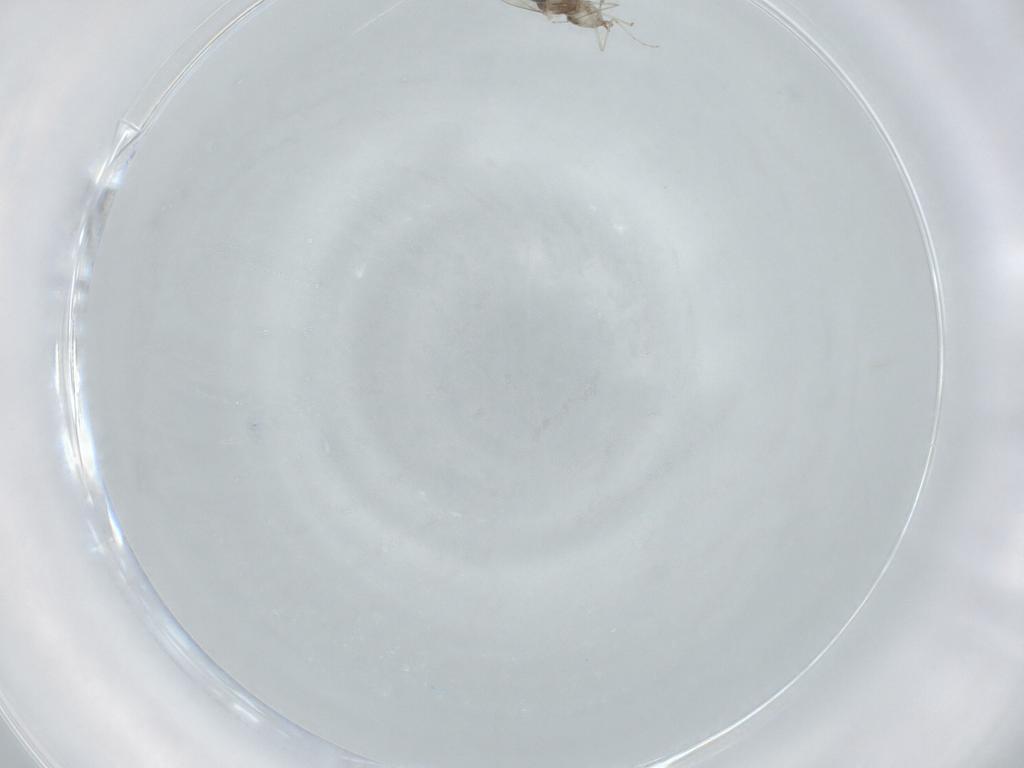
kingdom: Animalia
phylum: Arthropoda
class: Insecta
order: Diptera
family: Cecidomyiidae
